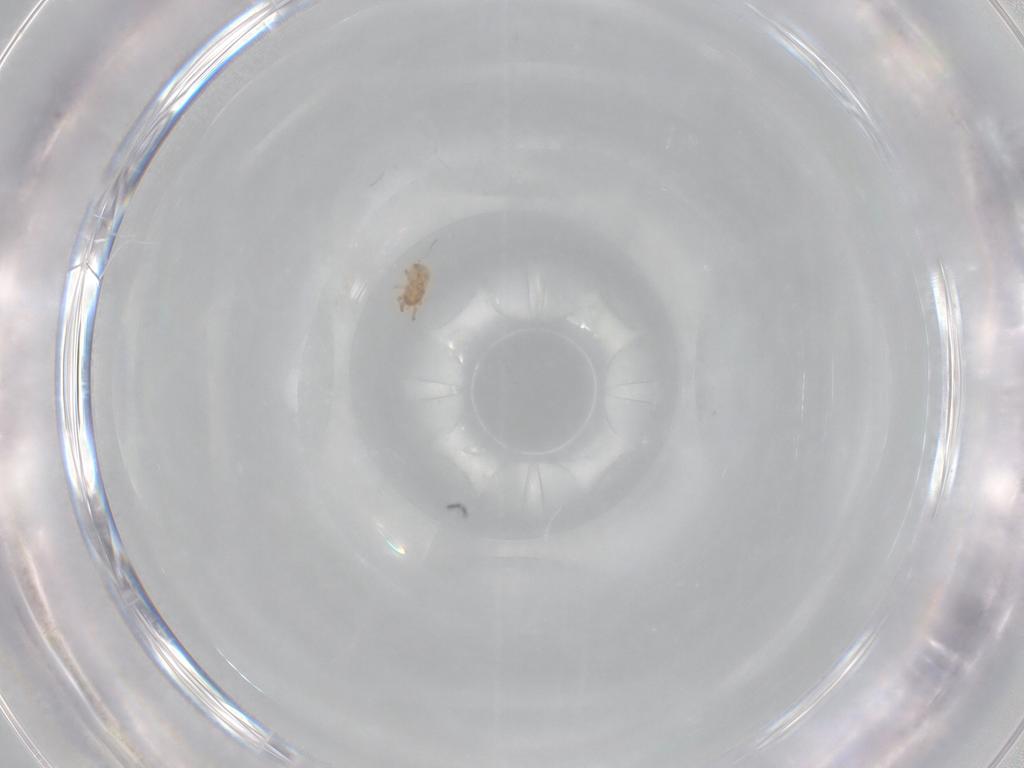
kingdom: Animalia
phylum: Arthropoda
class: Arachnida
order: Mesostigmata
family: Ascidae
